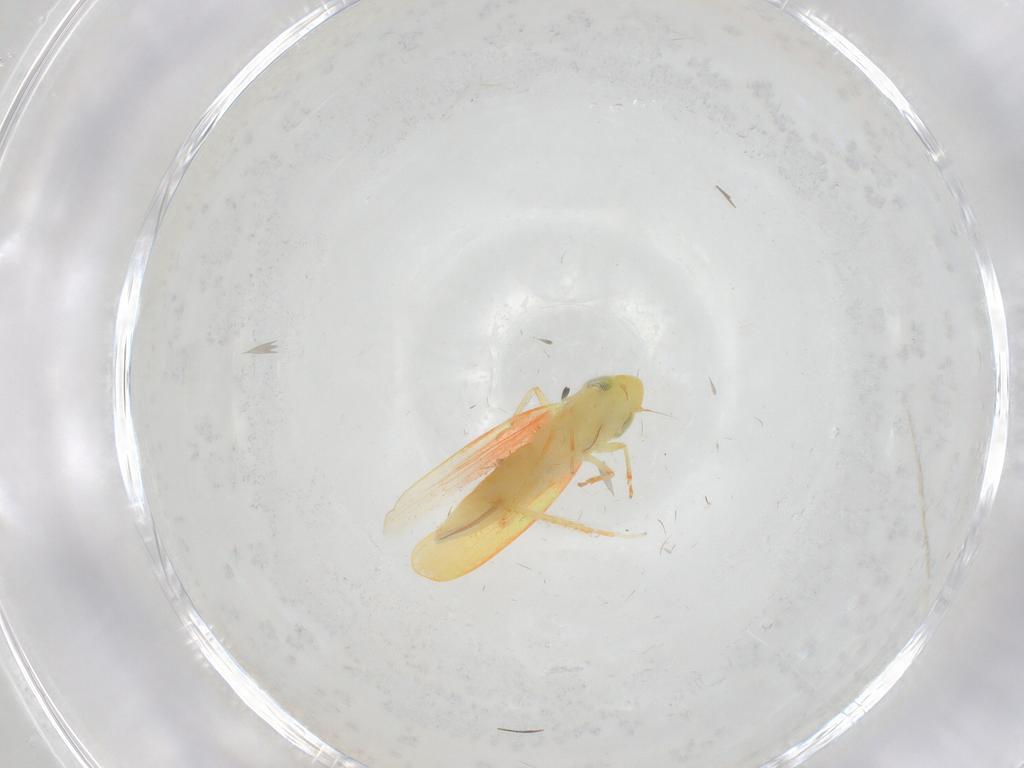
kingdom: Animalia
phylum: Arthropoda
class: Insecta
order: Hemiptera
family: Cicadellidae
